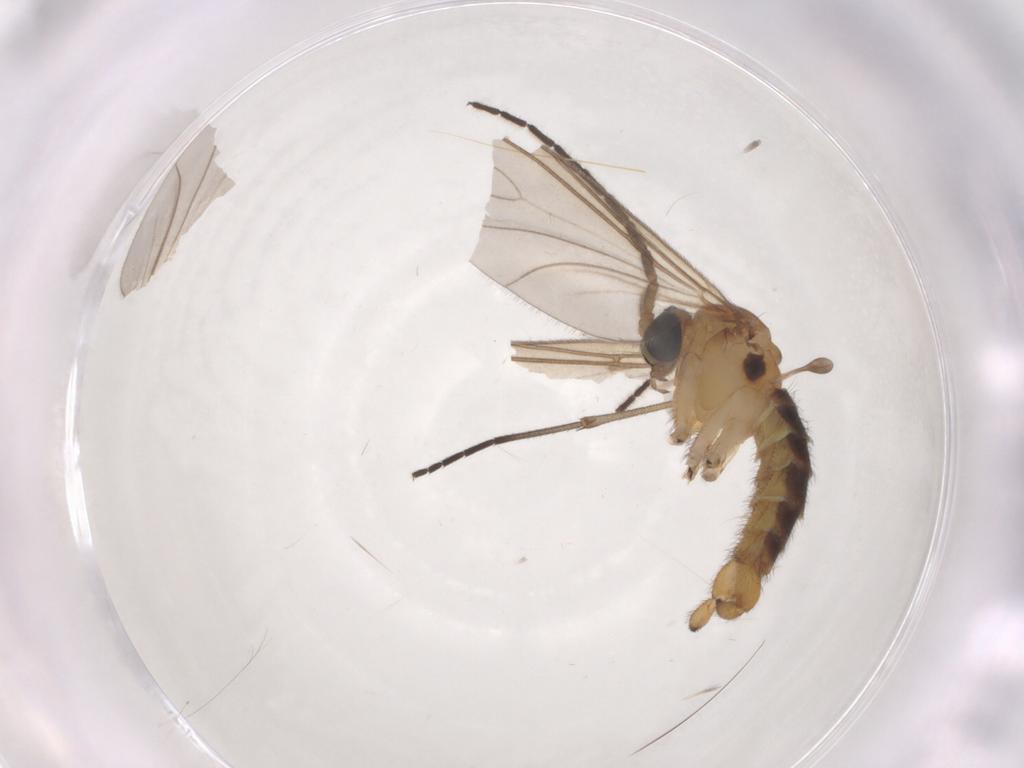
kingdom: Animalia
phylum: Arthropoda
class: Insecta
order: Diptera
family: Sciaridae
